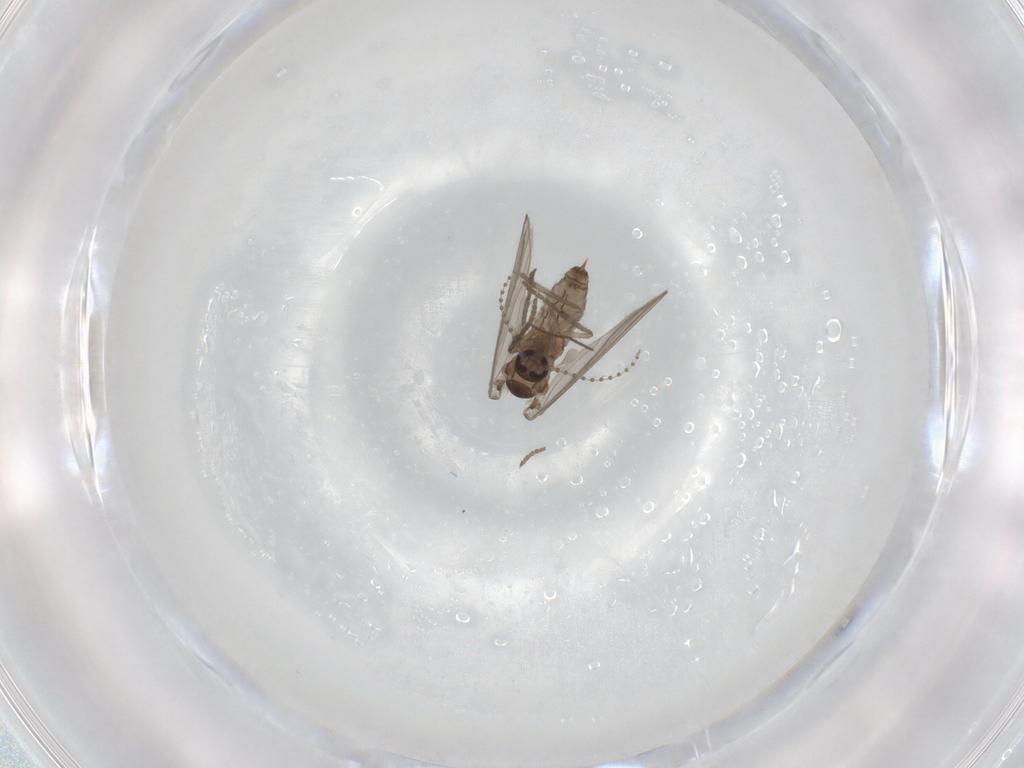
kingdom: Animalia
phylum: Arthropoda
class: Insecta
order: Diptera
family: Psychodidae
